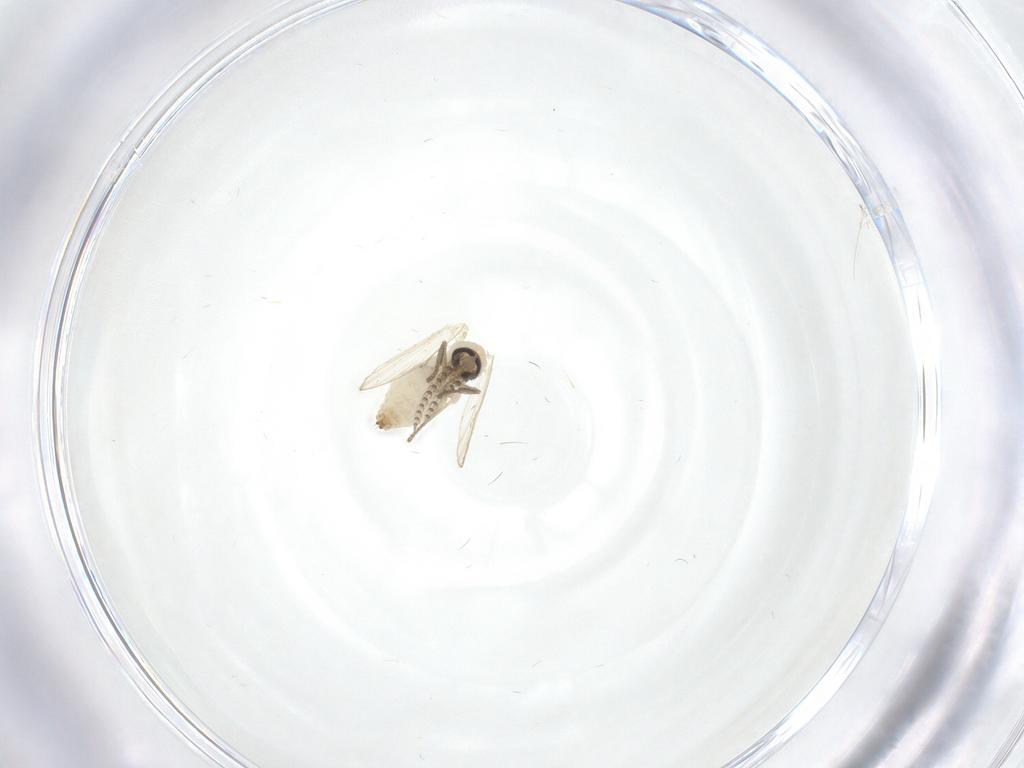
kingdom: Animalia
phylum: Arthropoda
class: Insecta
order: Diptera
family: Psychodidae
